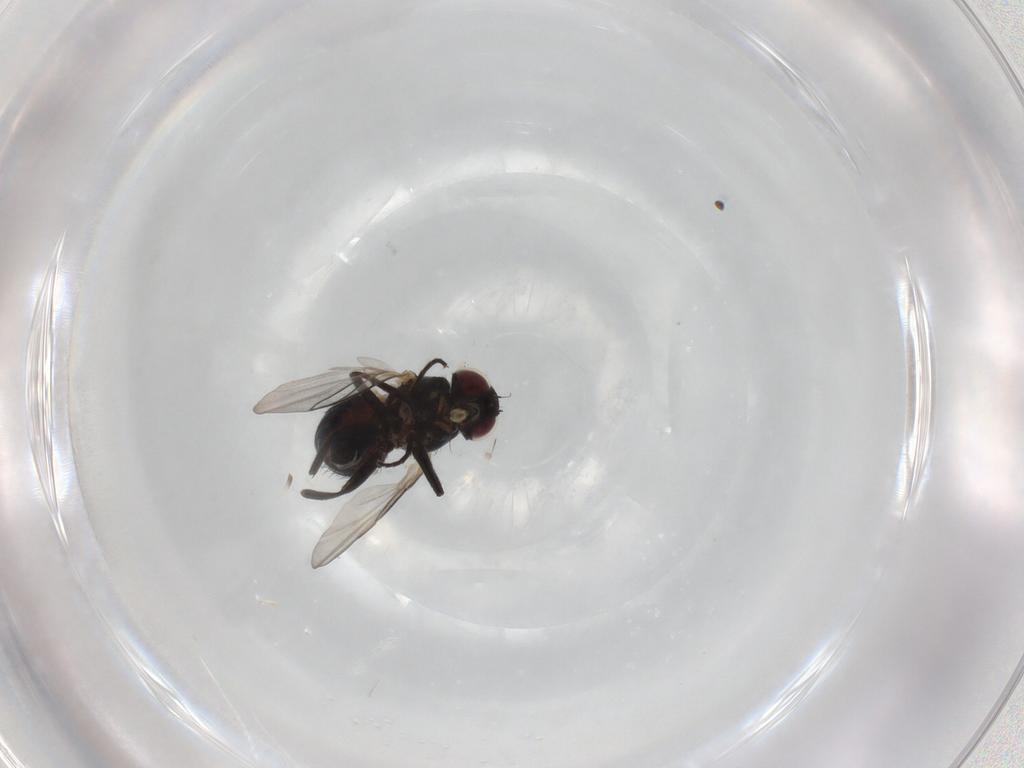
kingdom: Animalia
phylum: Arthropoda
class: Insecta
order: Diptera
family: Agromyzidae
